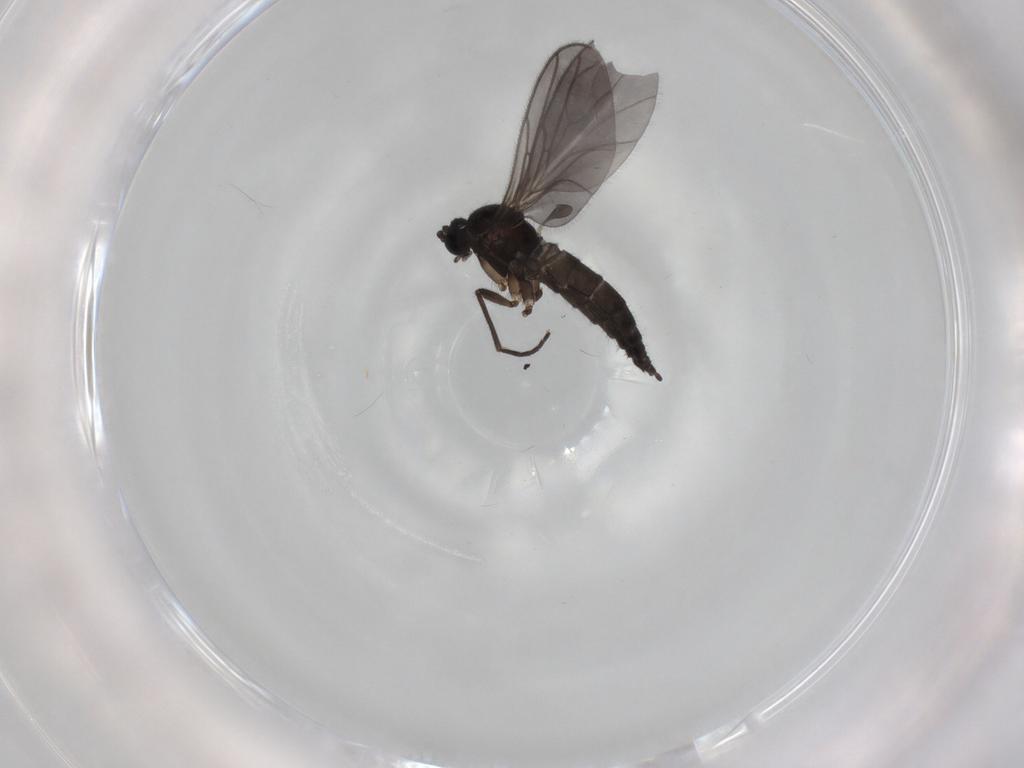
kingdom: Animalia
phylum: Arthropoda
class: Insecta
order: Diptera
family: Sciaridae
